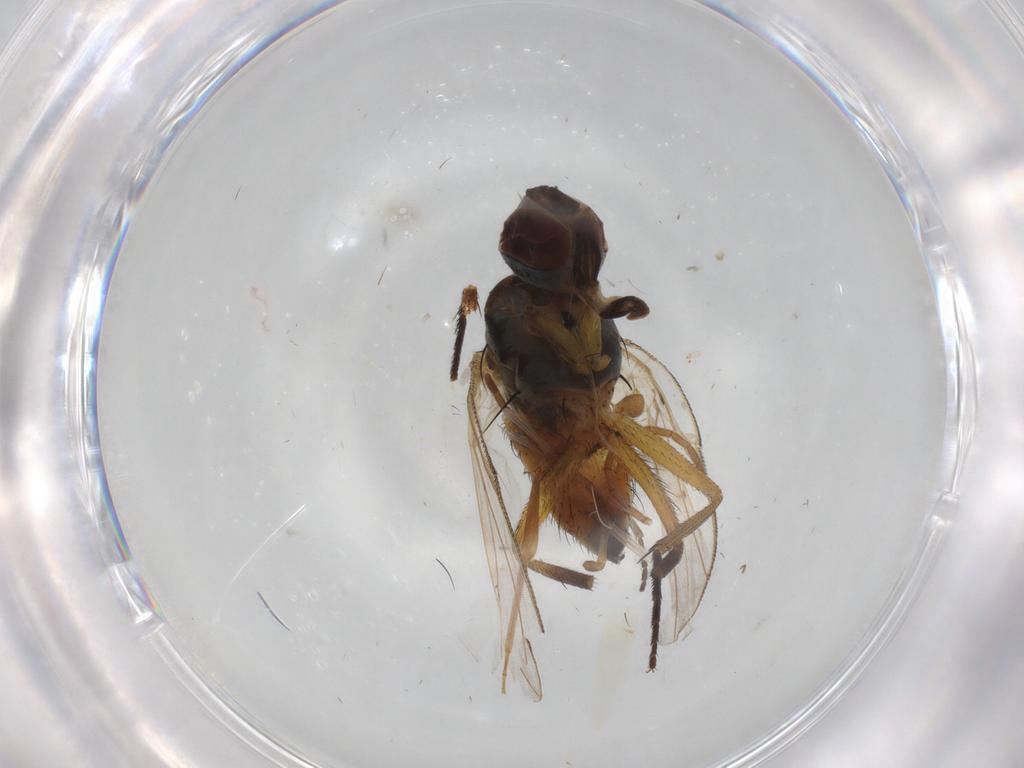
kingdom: Animalia
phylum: Arthropoda
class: Insecta
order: Diptera
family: Muscidae
